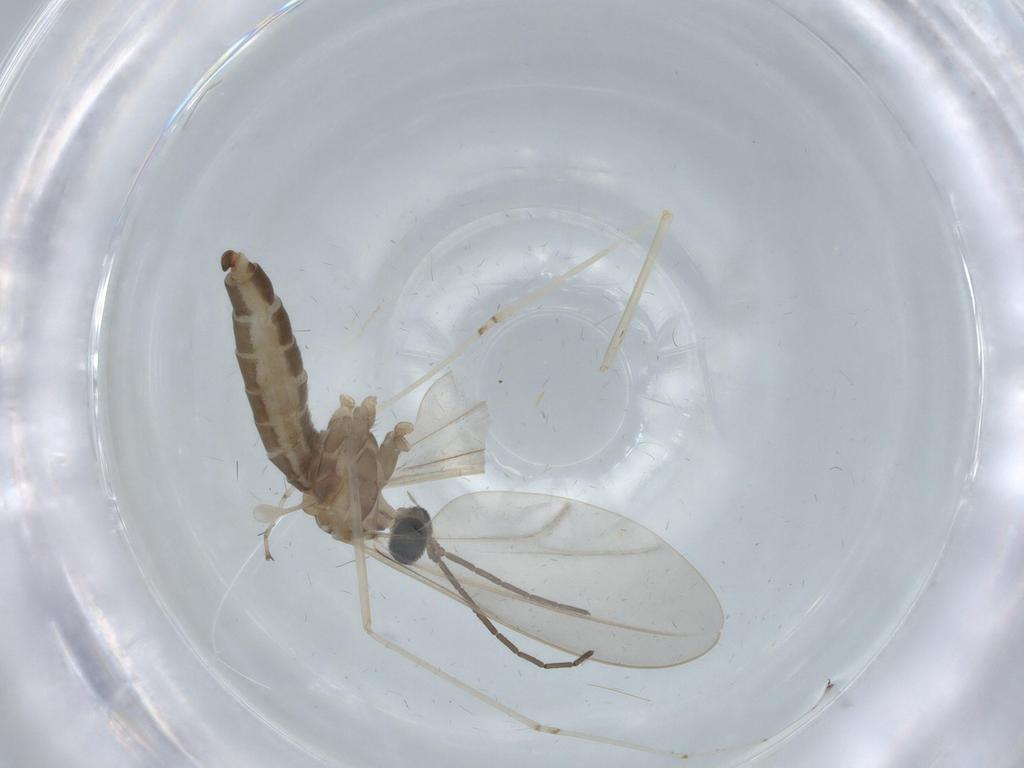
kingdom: Animalia
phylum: Arthropoda
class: Insecta
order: Diptera
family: Cecidomyiidae
